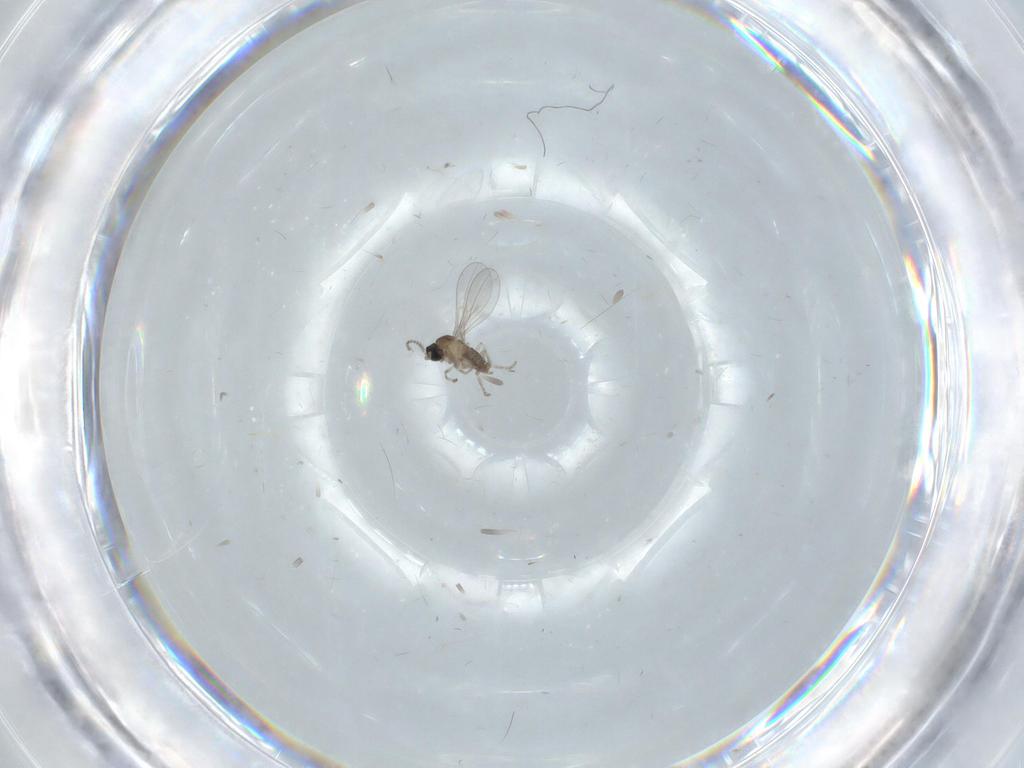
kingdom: Animalia
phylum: Arthropoda
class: Insecta
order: Diptera
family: Cecidomyiidae
